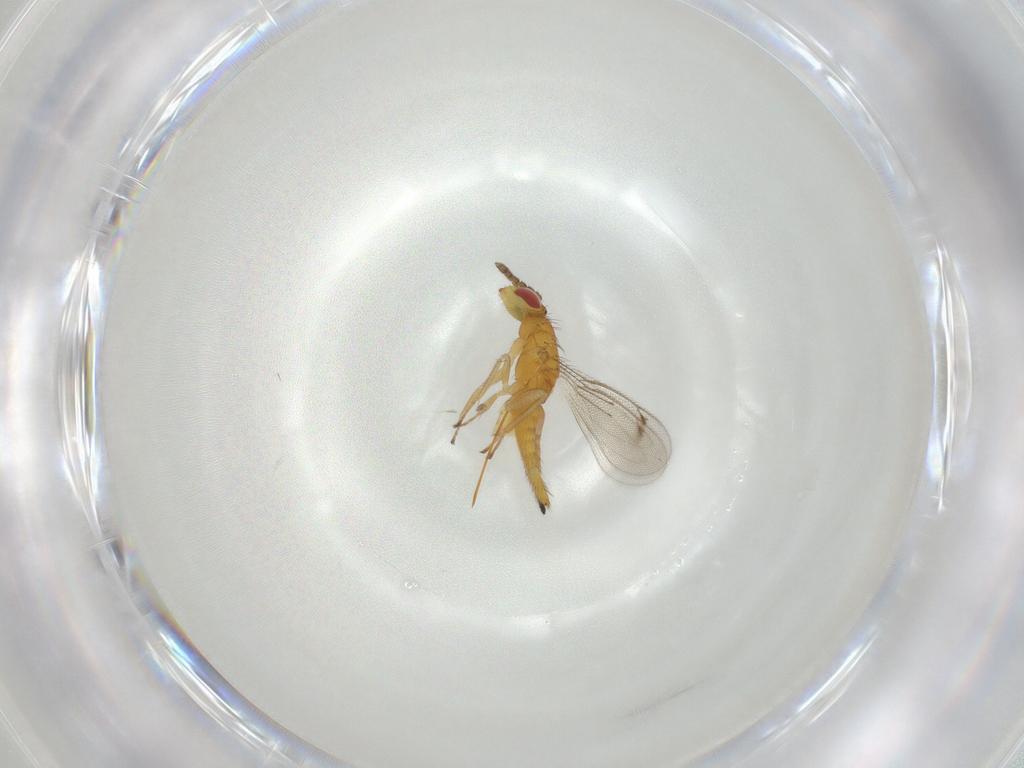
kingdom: Animalia
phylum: Arthropoda
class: Insecta
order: Hymenoptera
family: Eulophidae
